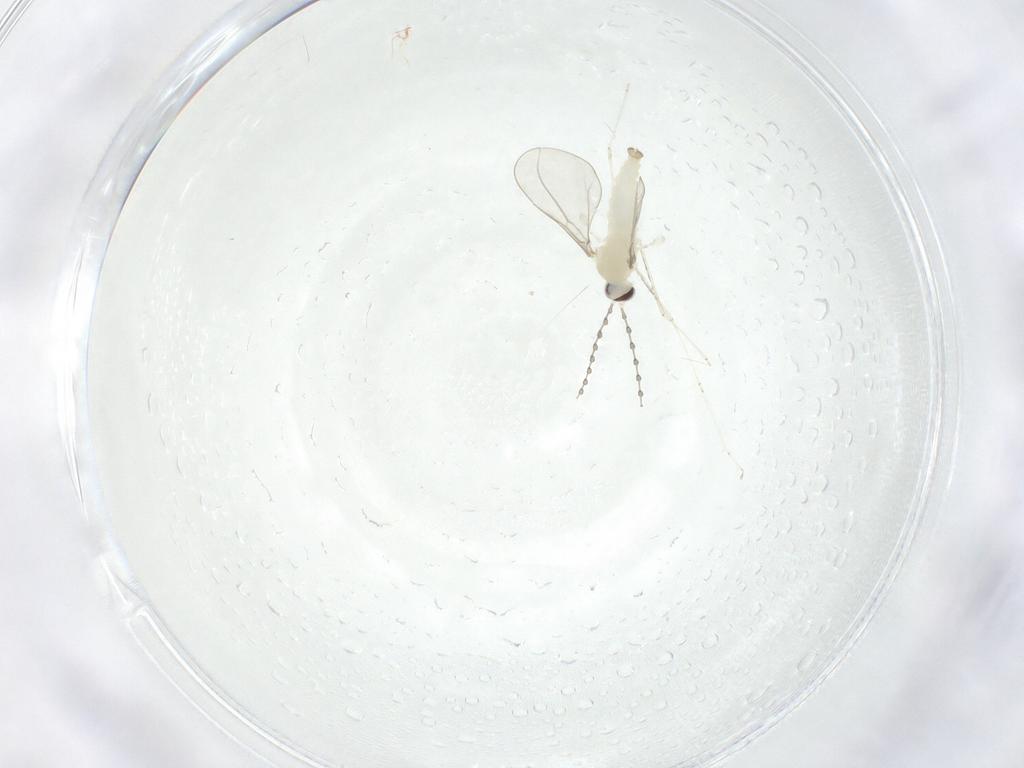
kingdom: Animalia
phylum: Arthropoda
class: Insecta
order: Diptera
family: Cecidomyiidae
